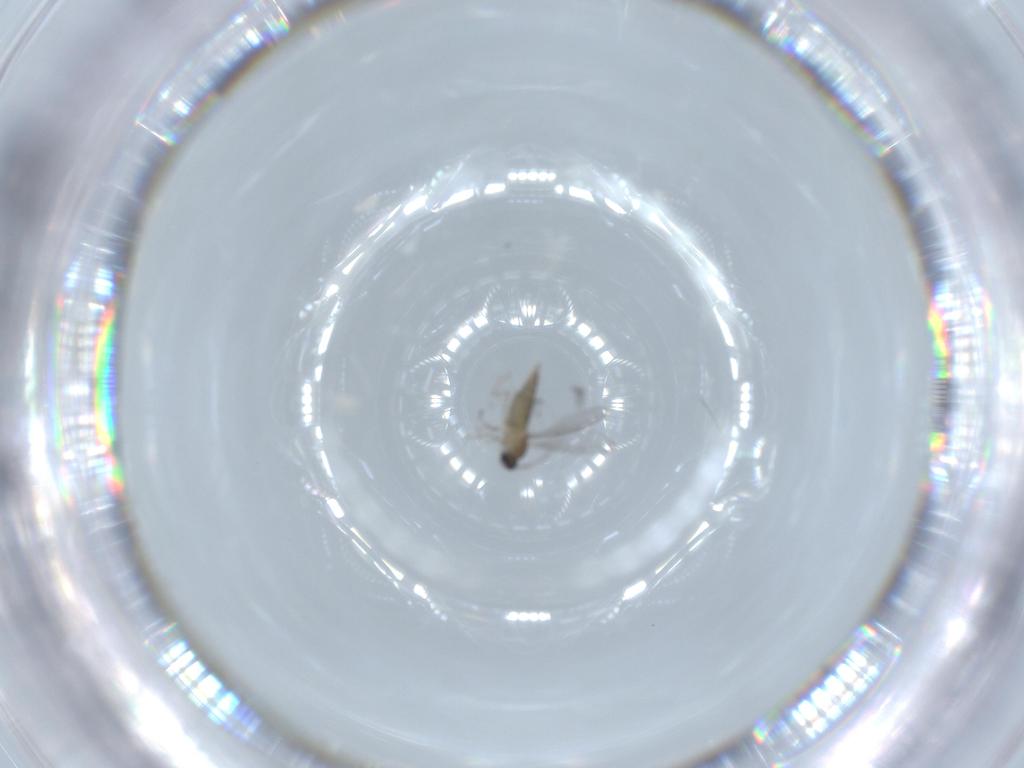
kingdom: Animalia
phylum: Arthropoda
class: Insecta
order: Diptera
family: Cecidomyiidae
